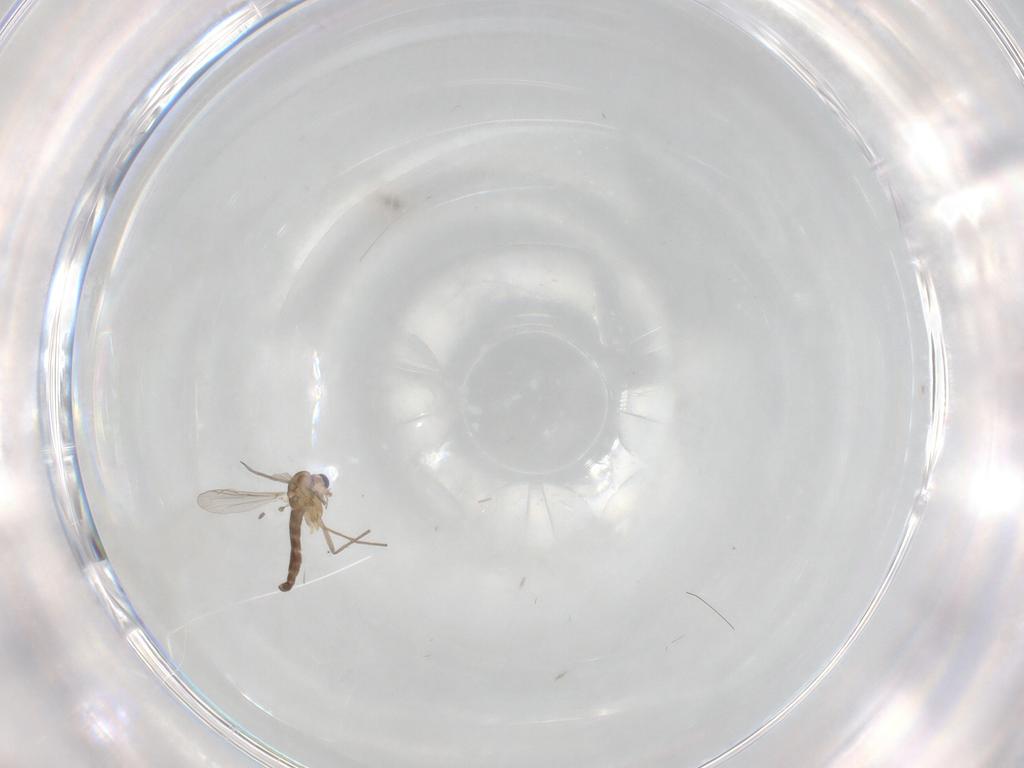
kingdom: Animalia
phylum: Arthropoda
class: Insecta
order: Diptera
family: Chironomidae
